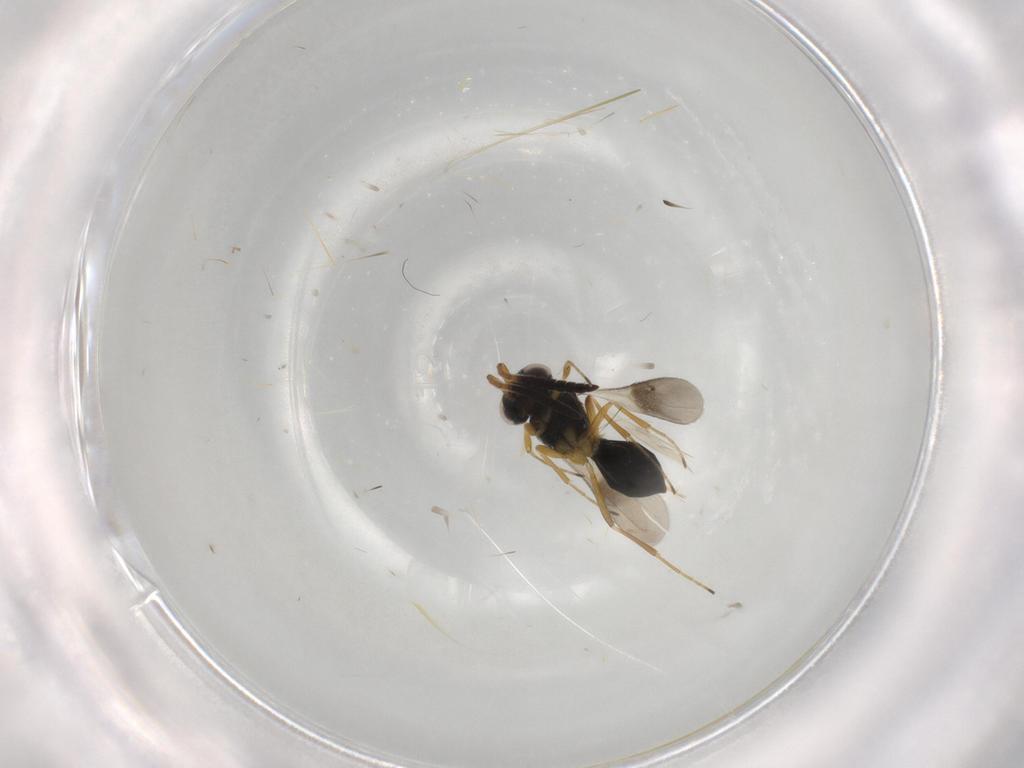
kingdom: Animalia
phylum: Arthropoda
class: Insecta
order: Hymenoptera
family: Scelionidae
